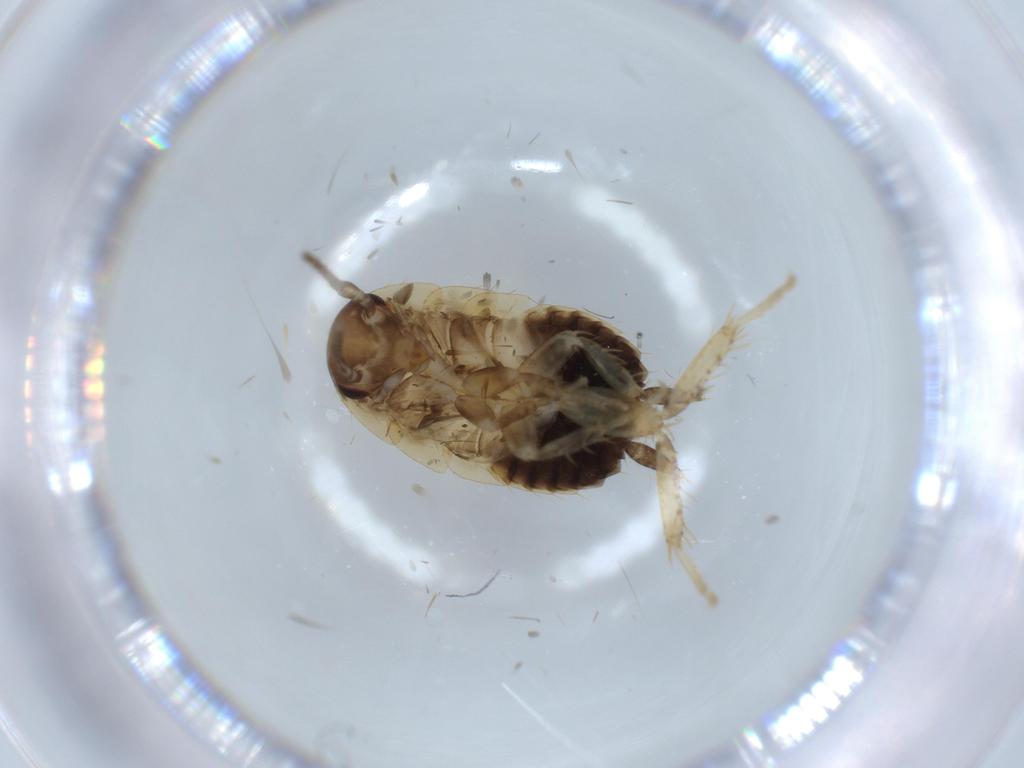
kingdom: Animalia
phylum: Arthropoda
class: Insecta
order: Blattodea
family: Ectobiidae
